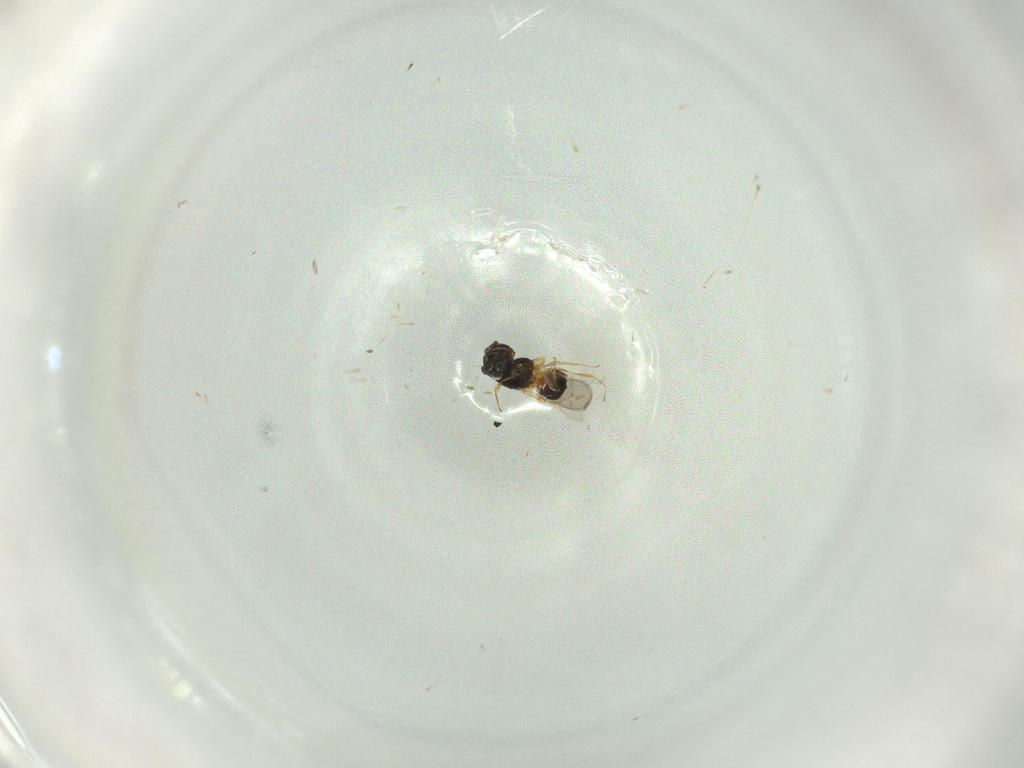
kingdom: Animalia
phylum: Arthropoda
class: Insecta
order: Hymenoptera
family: Scelionidae
